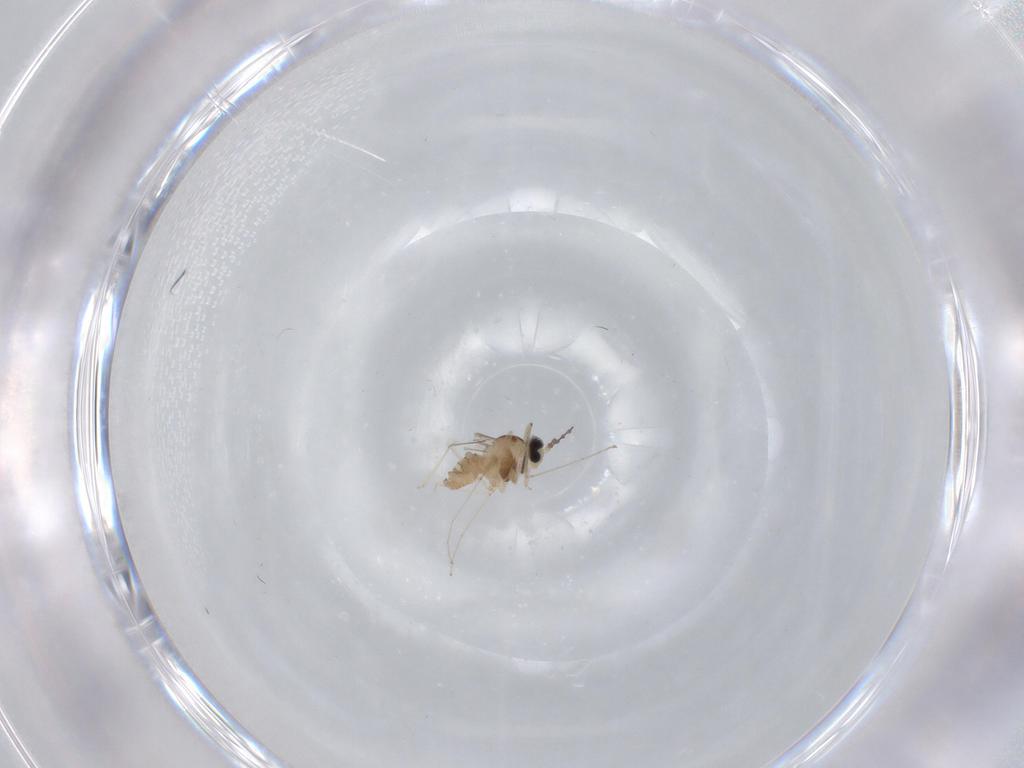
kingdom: Animalia
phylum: Arthropoda
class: Insecta
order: Diptera
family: Cecidomyiidae
